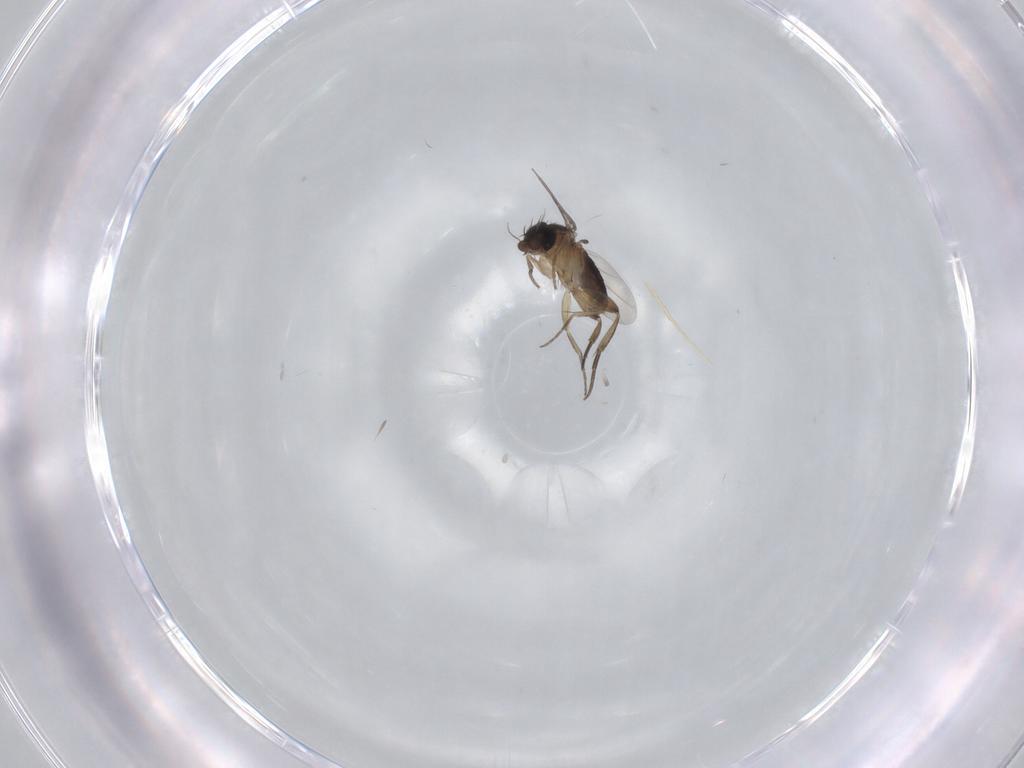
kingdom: Animalia
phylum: Arthropoda
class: Insecta
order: Diptera
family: Phoridae
